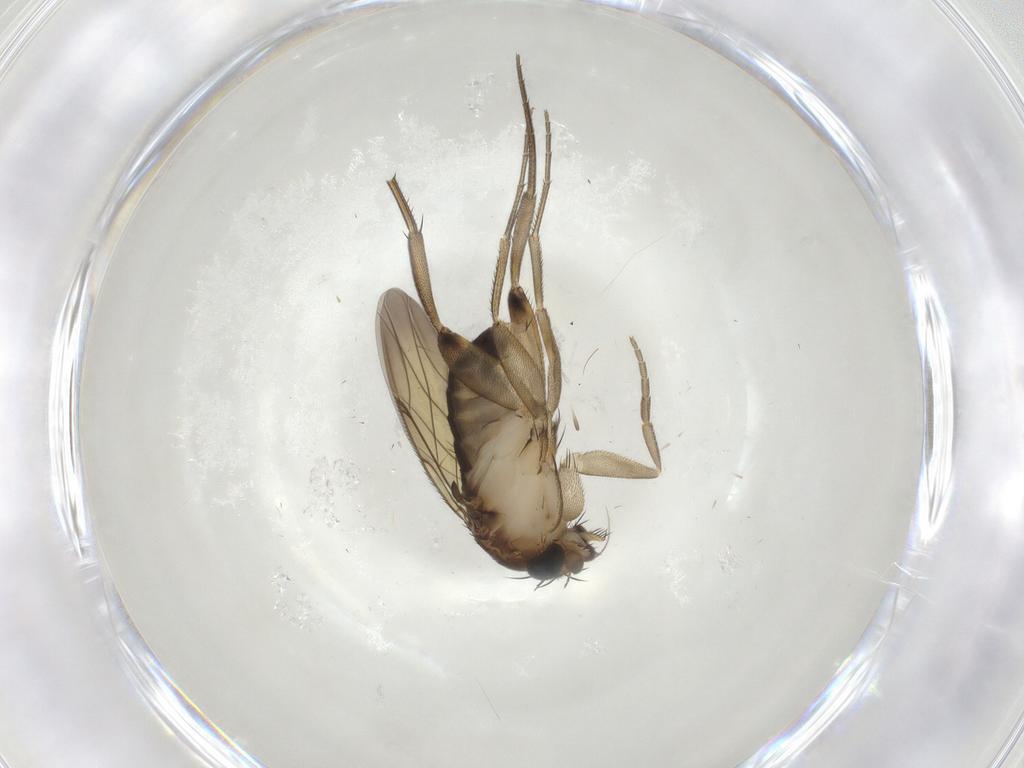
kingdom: Animalia
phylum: Arthropoda
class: Insecta
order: Diptera
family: Phoridae
